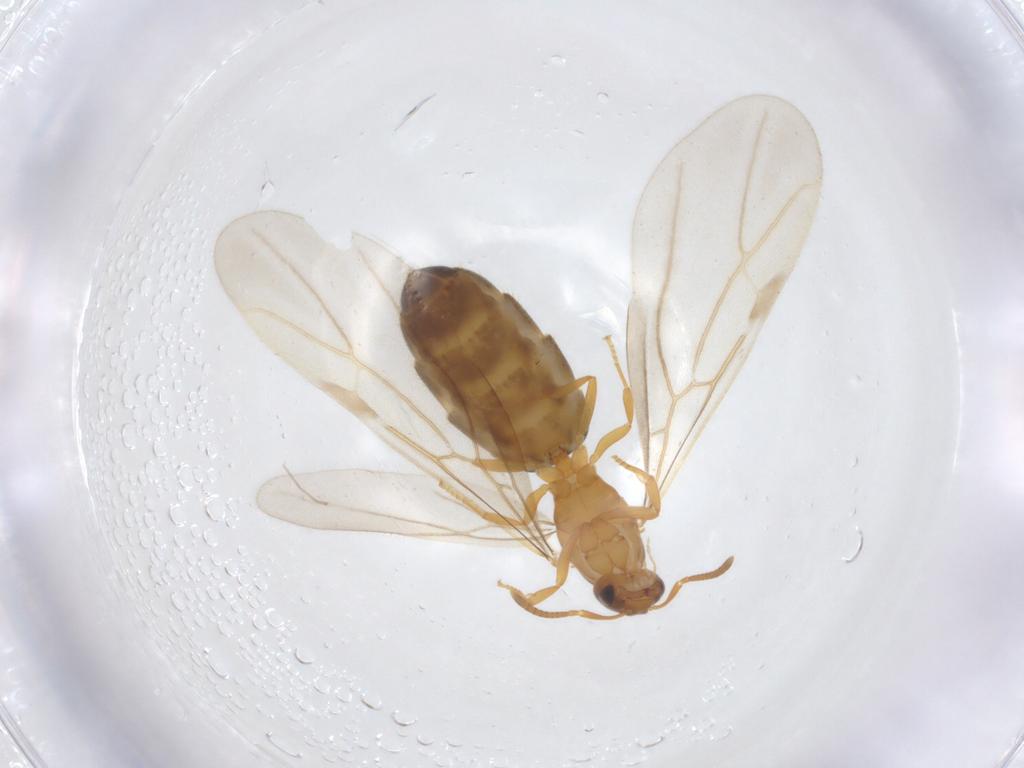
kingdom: Animalia
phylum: Arthropoda
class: Insecta
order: Hymenoptera
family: Formicidae
